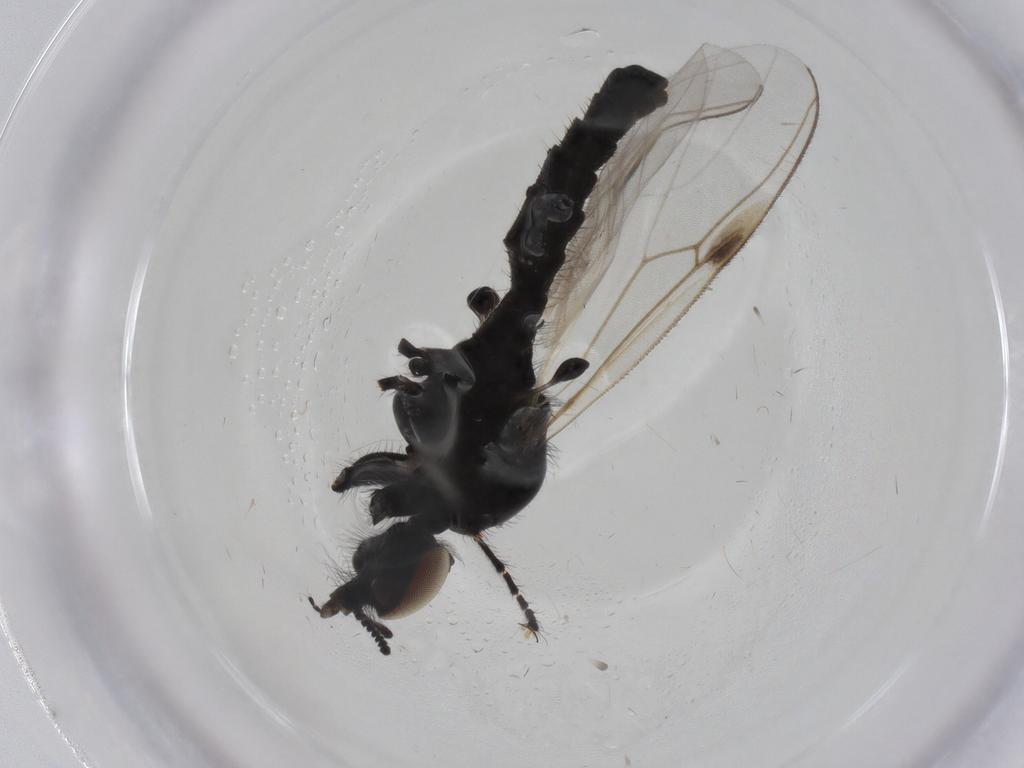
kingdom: Animalia
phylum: Arthropoda
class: Insecta
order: Diptera
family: Bibionidae
